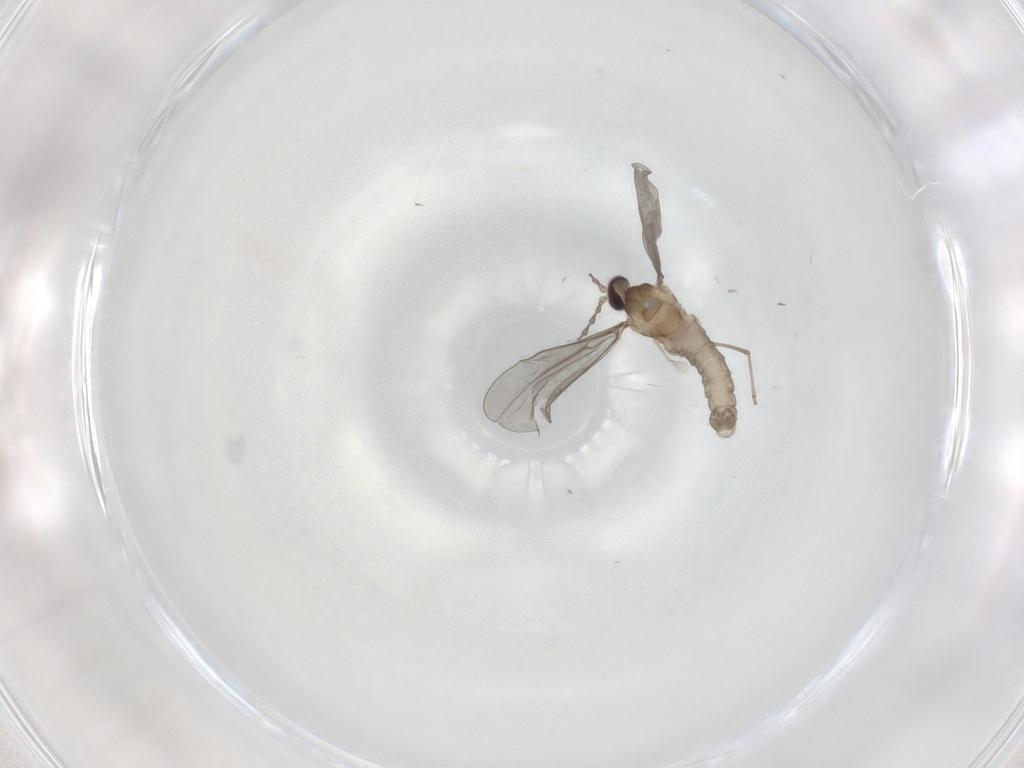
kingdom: Animalia
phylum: Arthropoda
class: Insecta
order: Diptera
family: Cecidomyiidae
